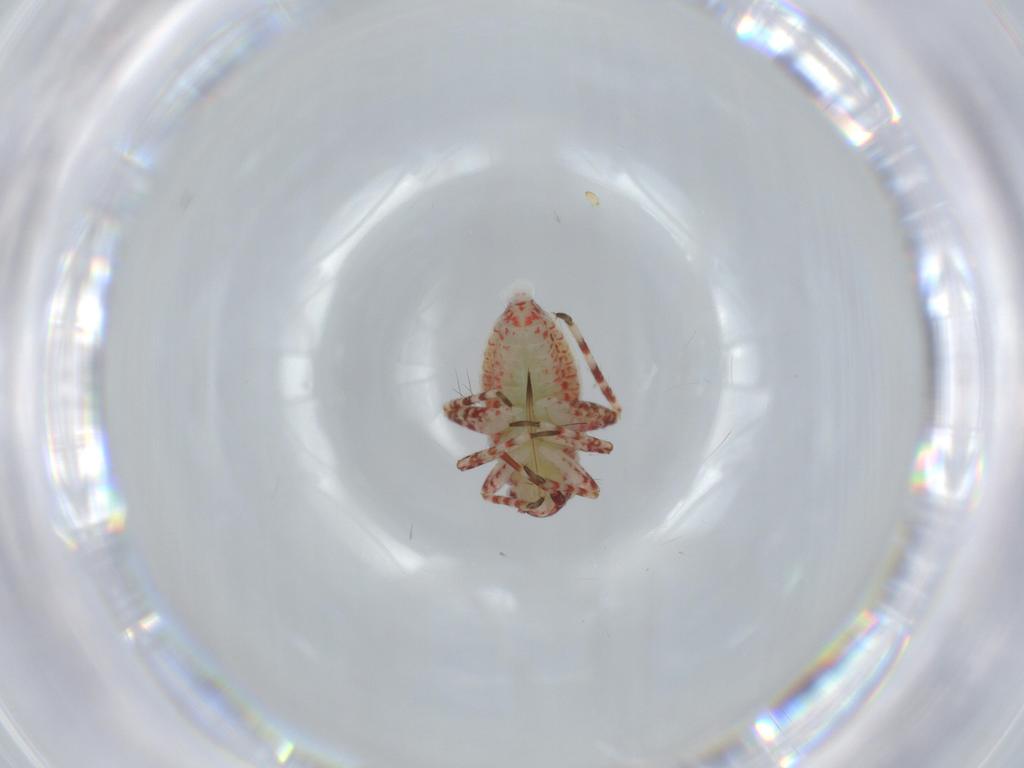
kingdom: Animalia
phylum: Arthropoda
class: Insecta
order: Hemiptera
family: Miridae
